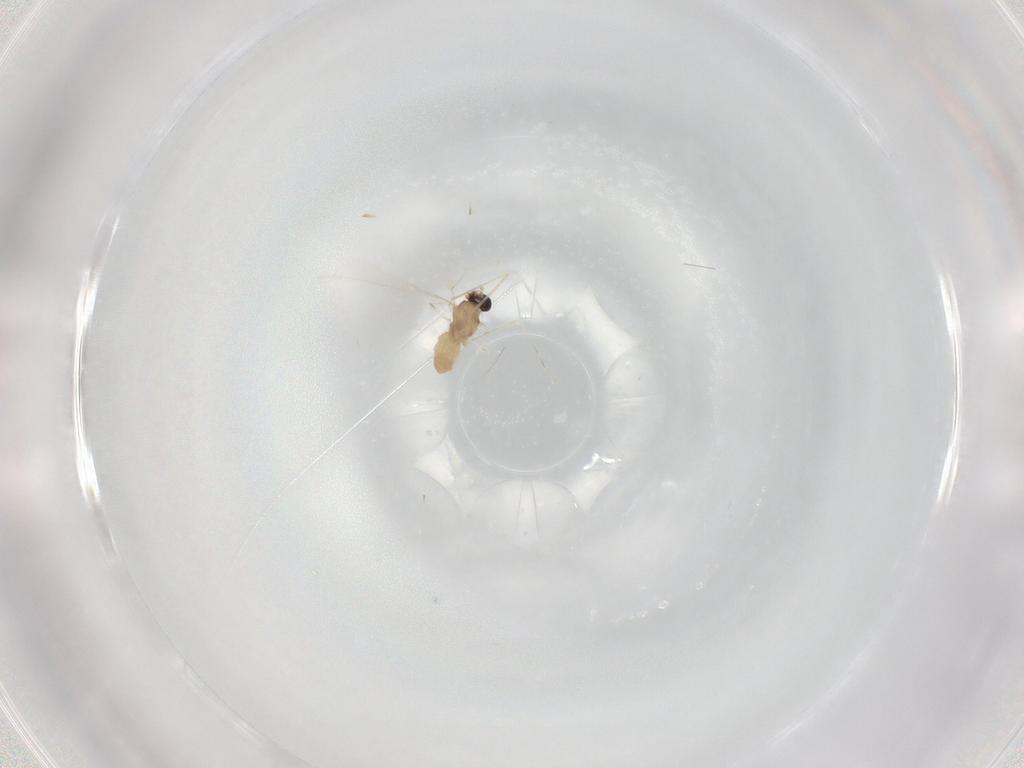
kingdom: Animalia
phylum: Arthropoda
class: Insecta
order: Diptera
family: Cecidomyiidae
